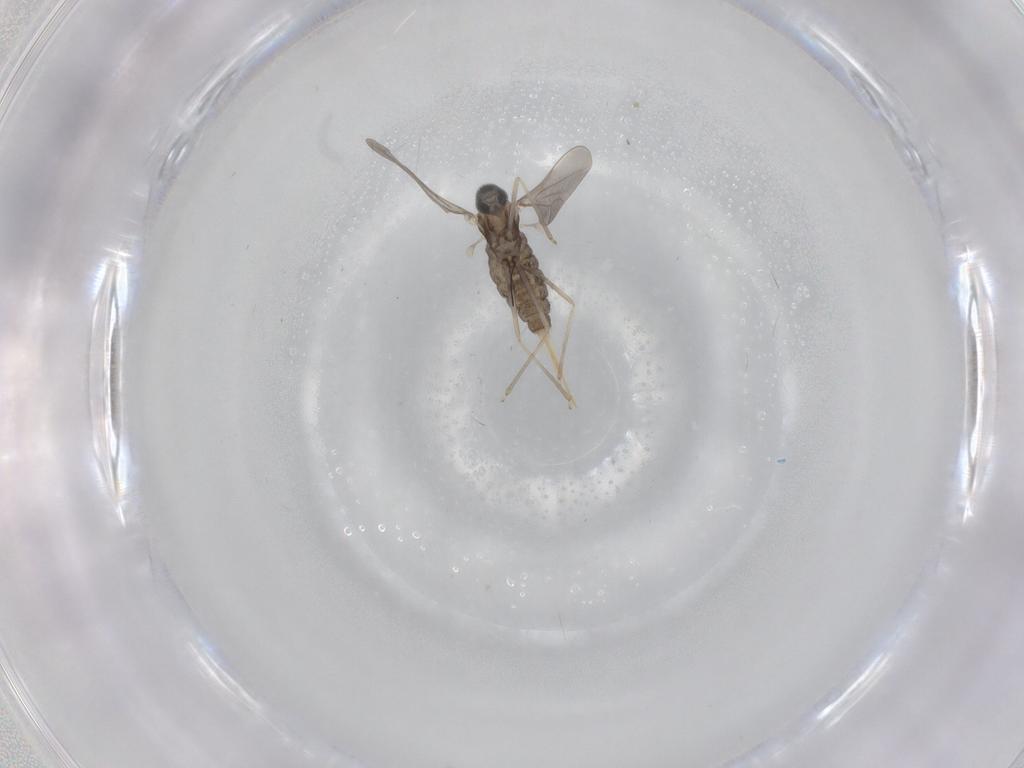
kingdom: Animalia
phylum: Arthropoda
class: Insecta
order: Diptera
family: Cecidomyiidae
